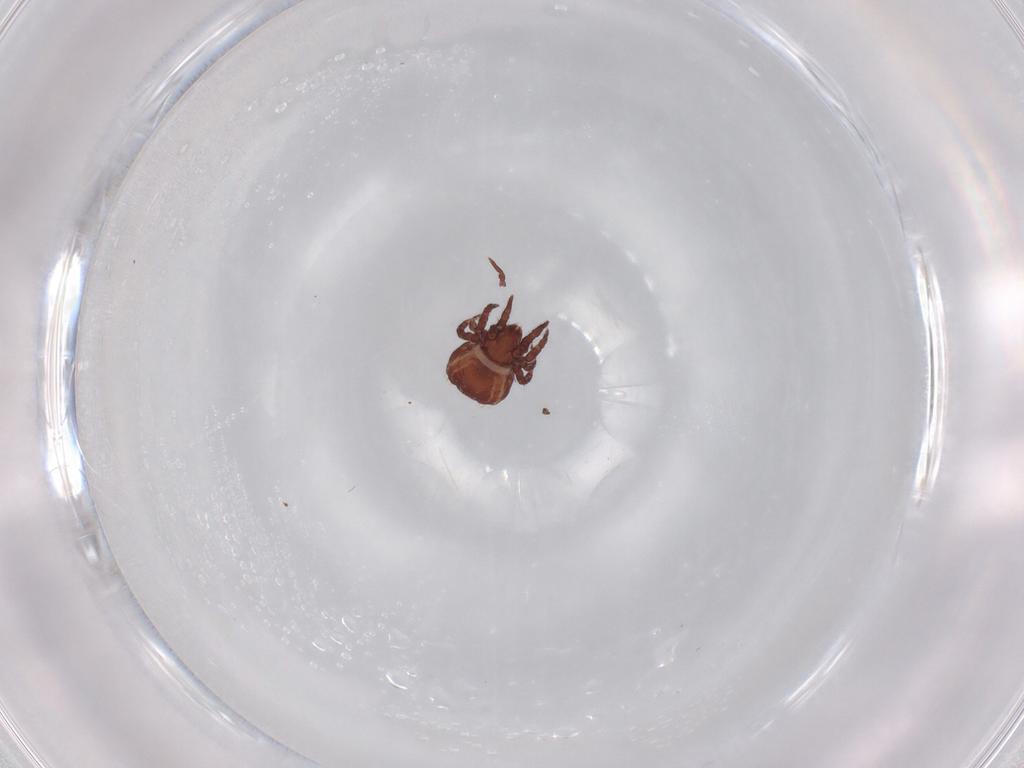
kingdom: Animalia
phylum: Arthropoda
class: Arachnida
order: Sarcoptiformes
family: Nothridae
